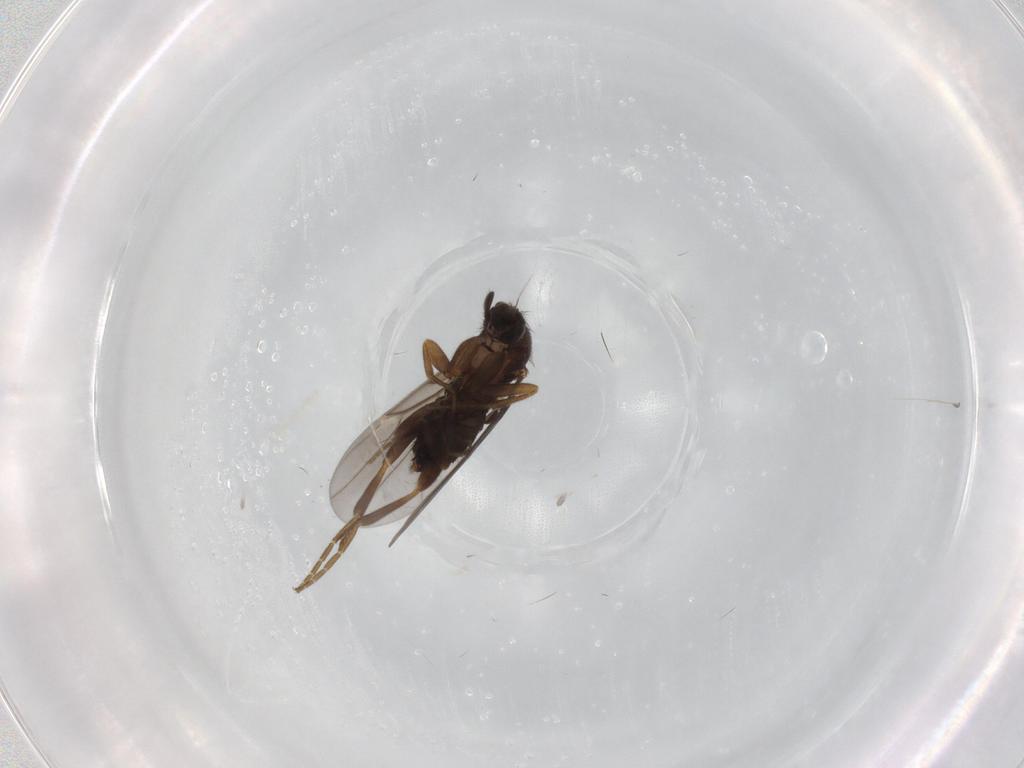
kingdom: Animalia
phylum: Arthropoda
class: Insecta
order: Diptera
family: Phoridae
